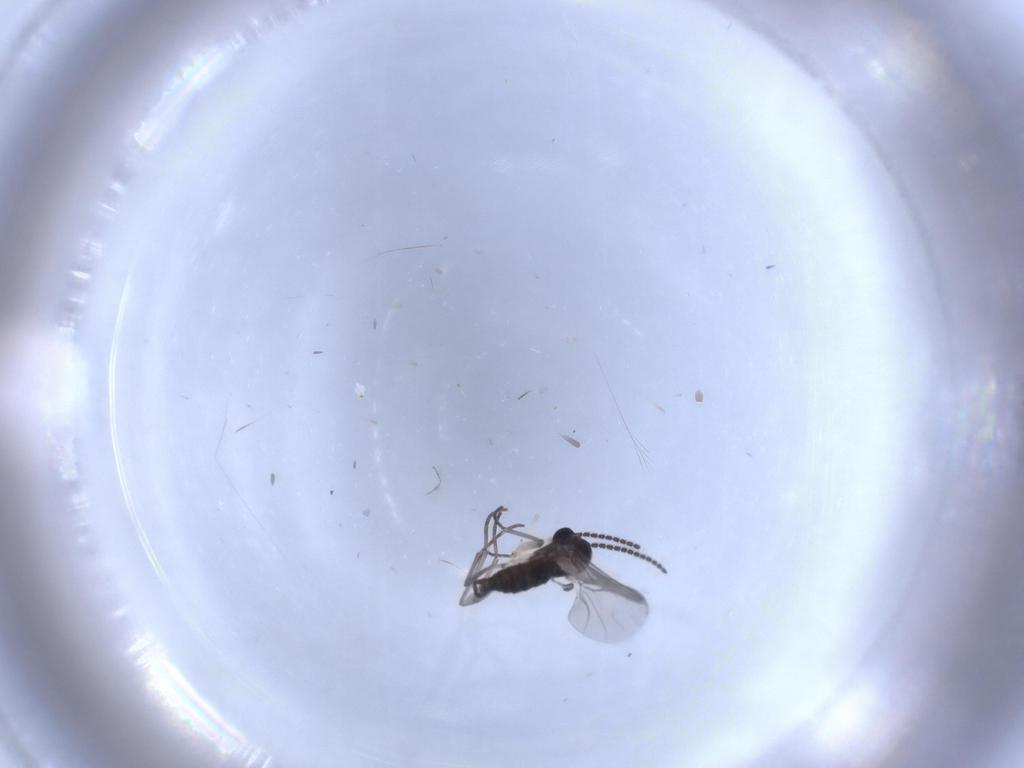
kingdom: Animalia
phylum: Arthropoda
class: Insecta
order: Diptera
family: Sciaridae
